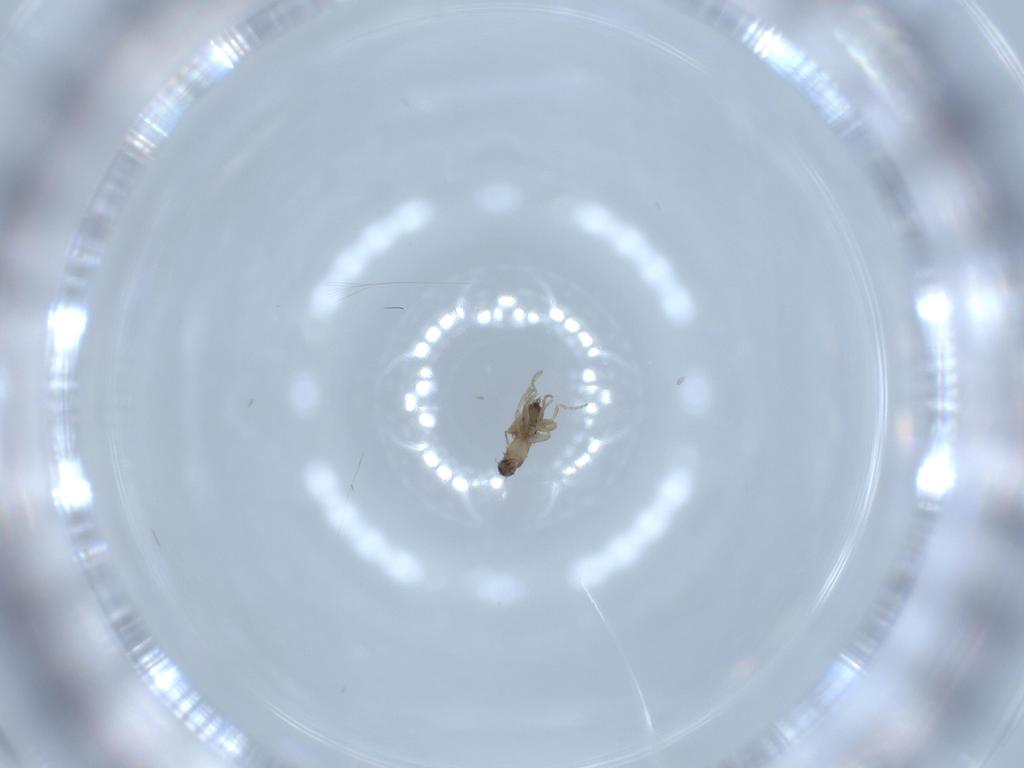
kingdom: Animalia
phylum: Arthropoda
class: Insecta
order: Diptera
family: Phoridae
